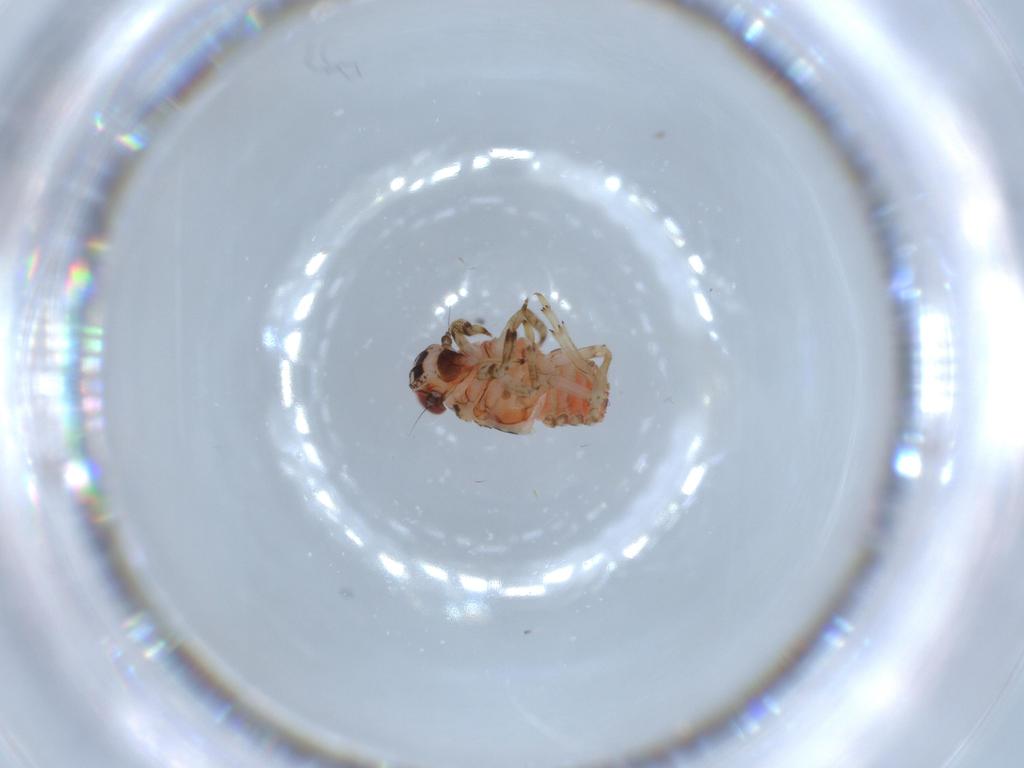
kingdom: Animalia
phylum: Arthropoda
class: Insecta
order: Hemiptera
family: Issidae
